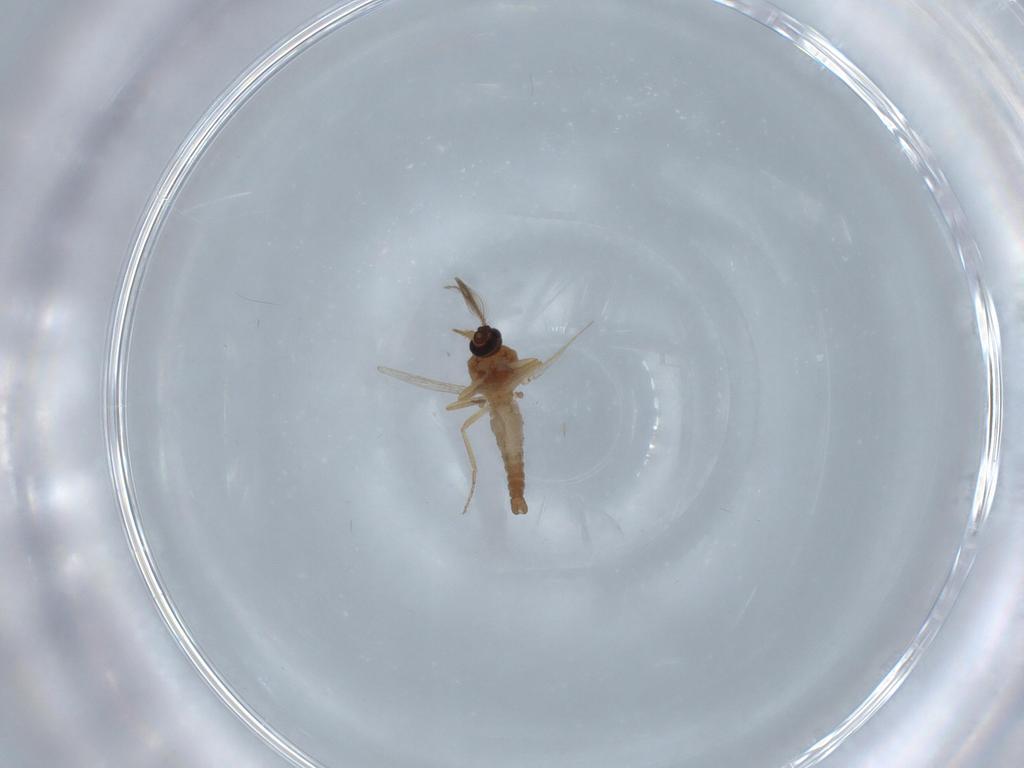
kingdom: Animalia
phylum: Arthropoda
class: Insecta
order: Diptera
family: Ceratopogonidae
